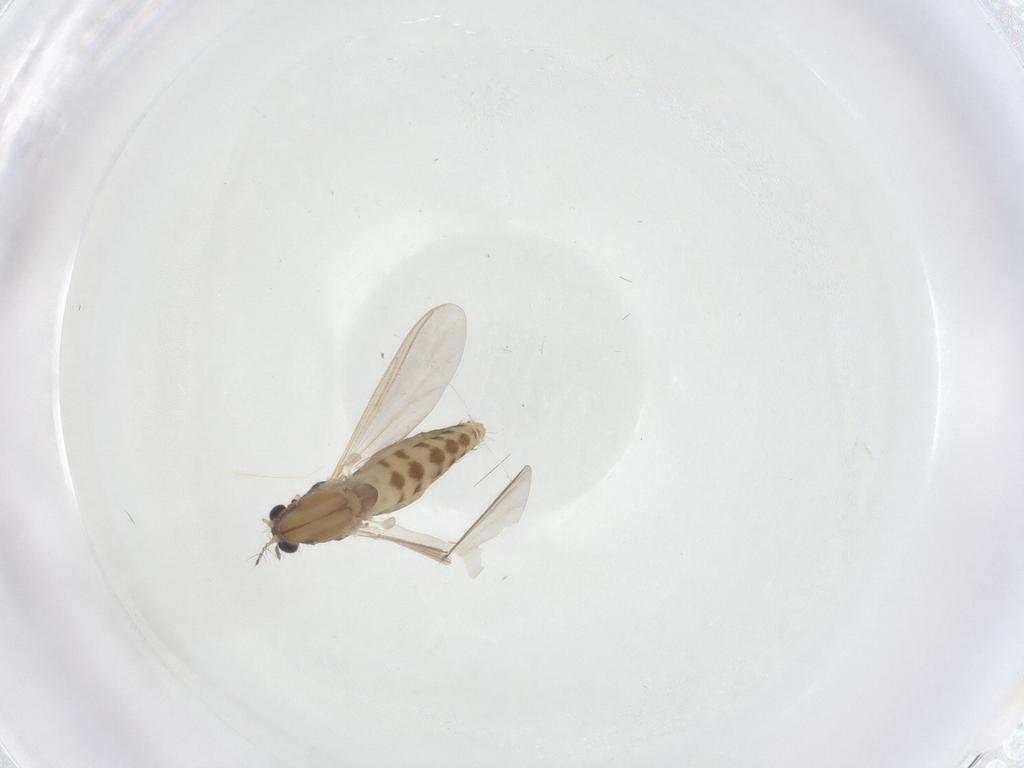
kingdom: Animalia
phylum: Arthropoda
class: Insecta
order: Diptera
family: Chironomidae
